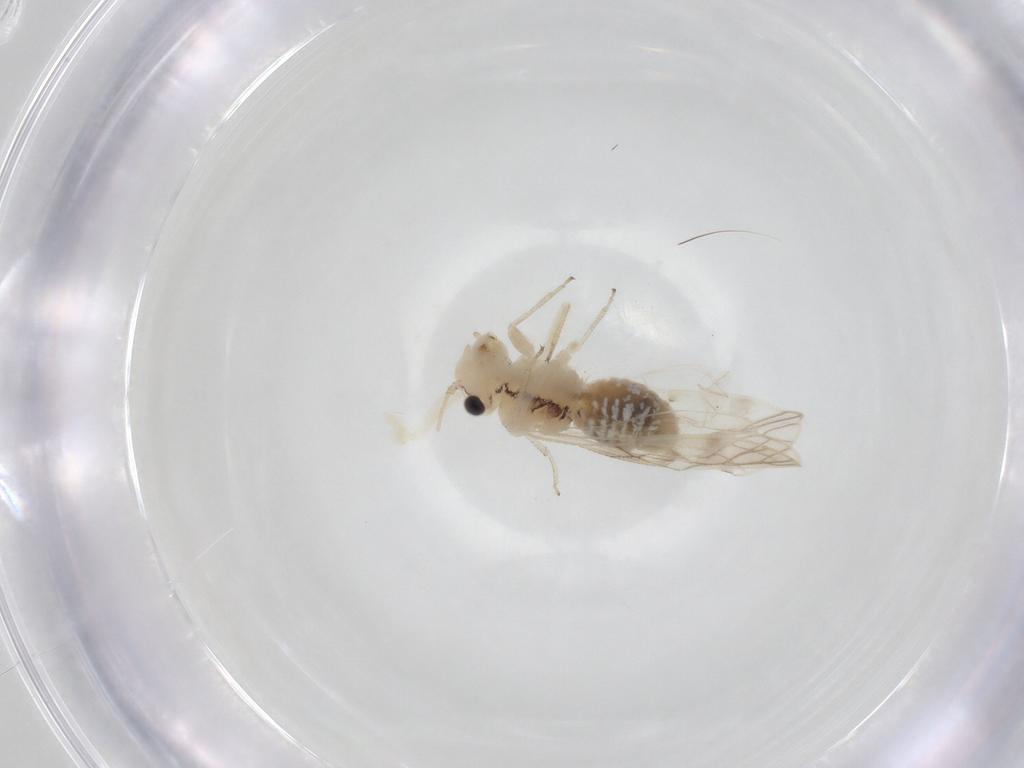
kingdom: Animalia
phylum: Arthropoda
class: Insecta
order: Psocodea
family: Caeciliusidae
